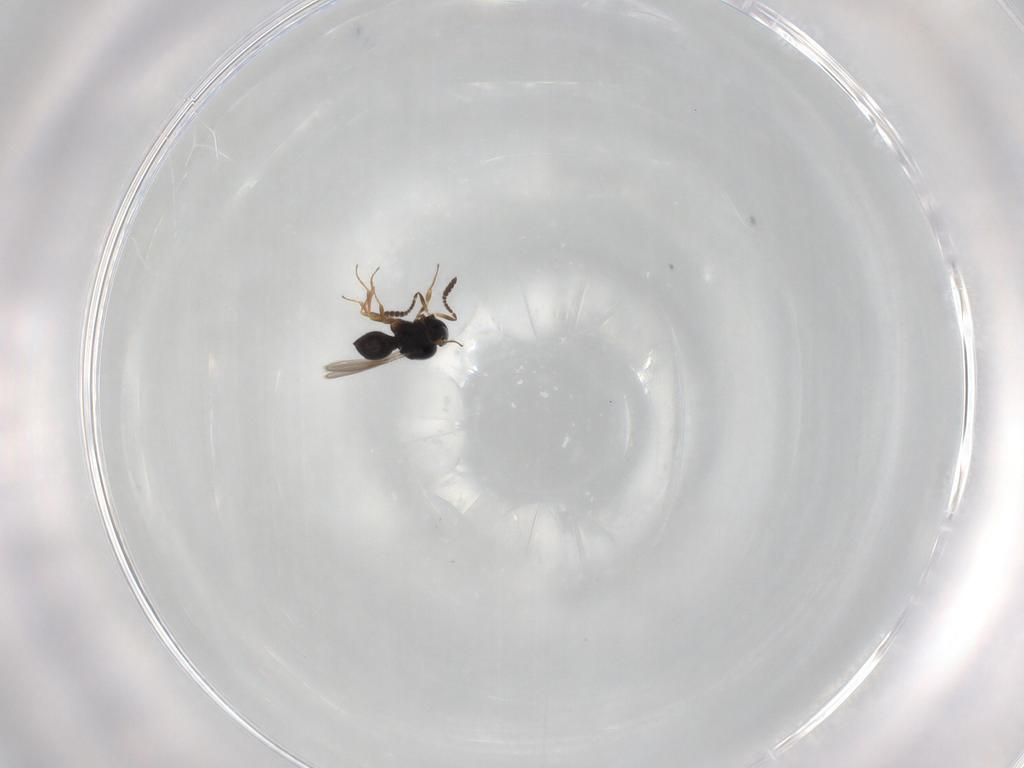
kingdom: Animalia
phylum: Arthropoda
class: Insecta
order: Hymenoptera
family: Scelionidae
